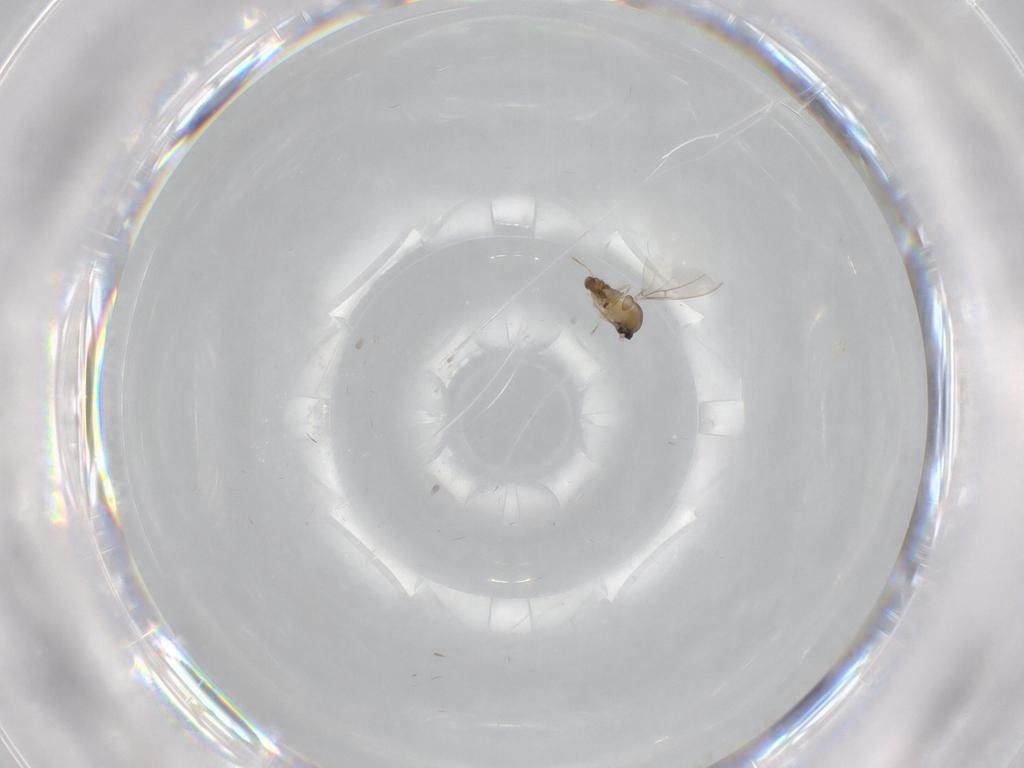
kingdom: Animalia
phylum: Arthropoda
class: Insecta
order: Diptera
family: Cecidomyiidae
